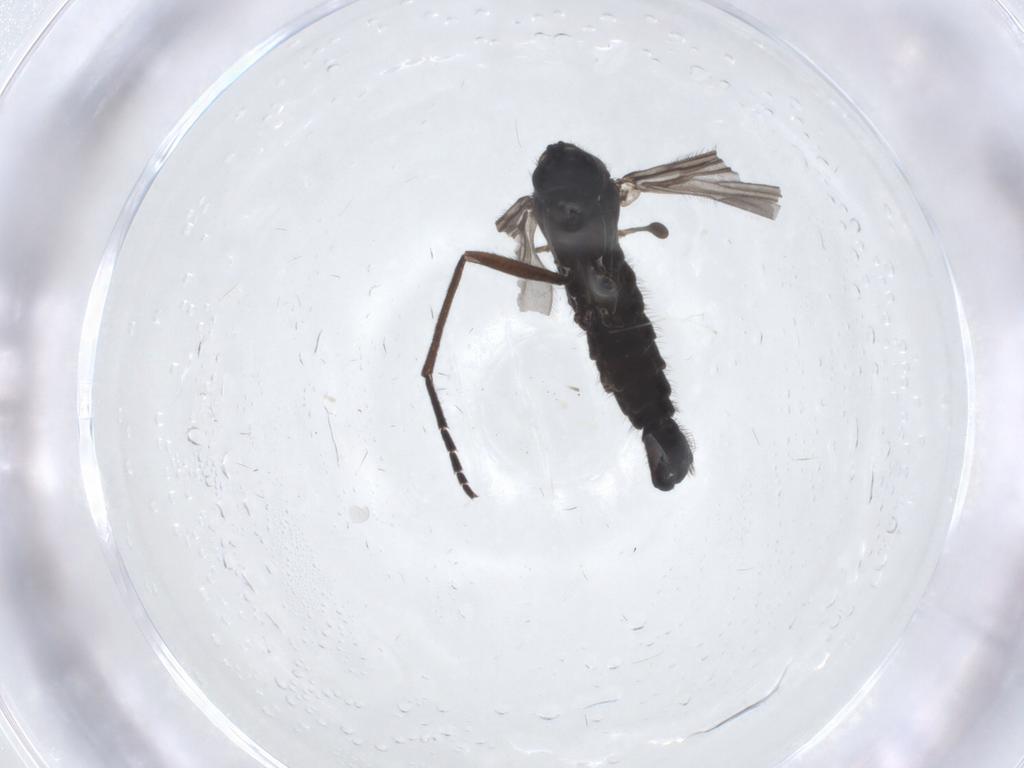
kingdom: Animalia
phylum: Arthropoda
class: Insecta
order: Diptera
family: Sciaridae
